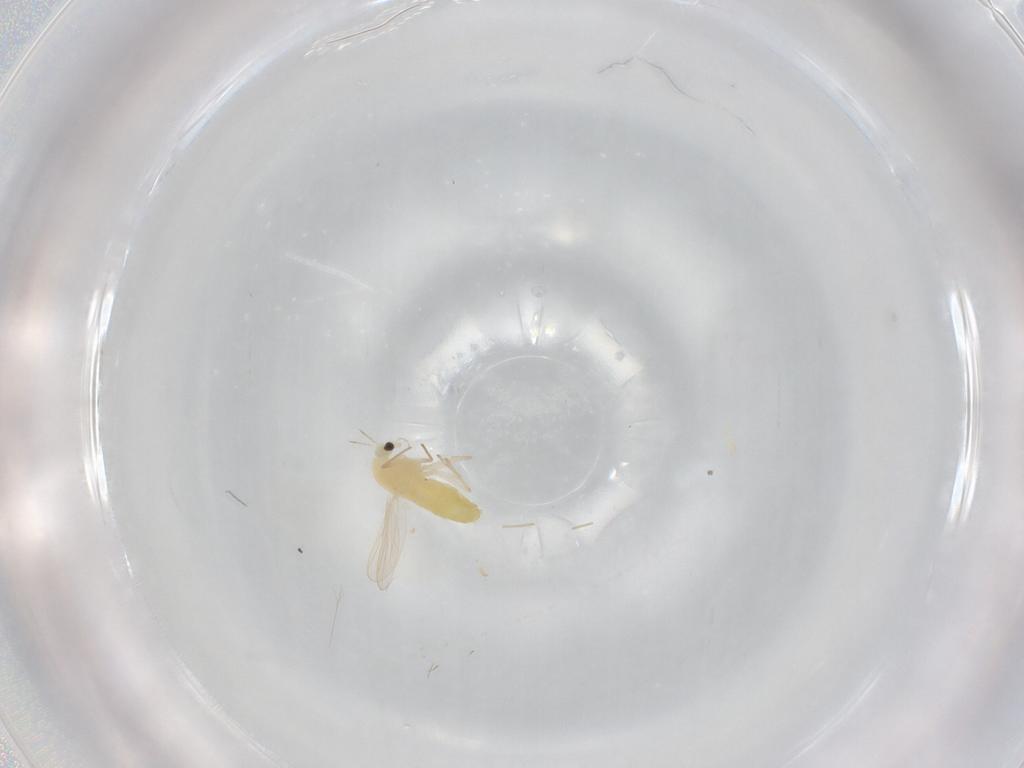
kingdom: Animalia
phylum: Arthropoda
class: Insecta
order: Diptera
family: Chironomidae
